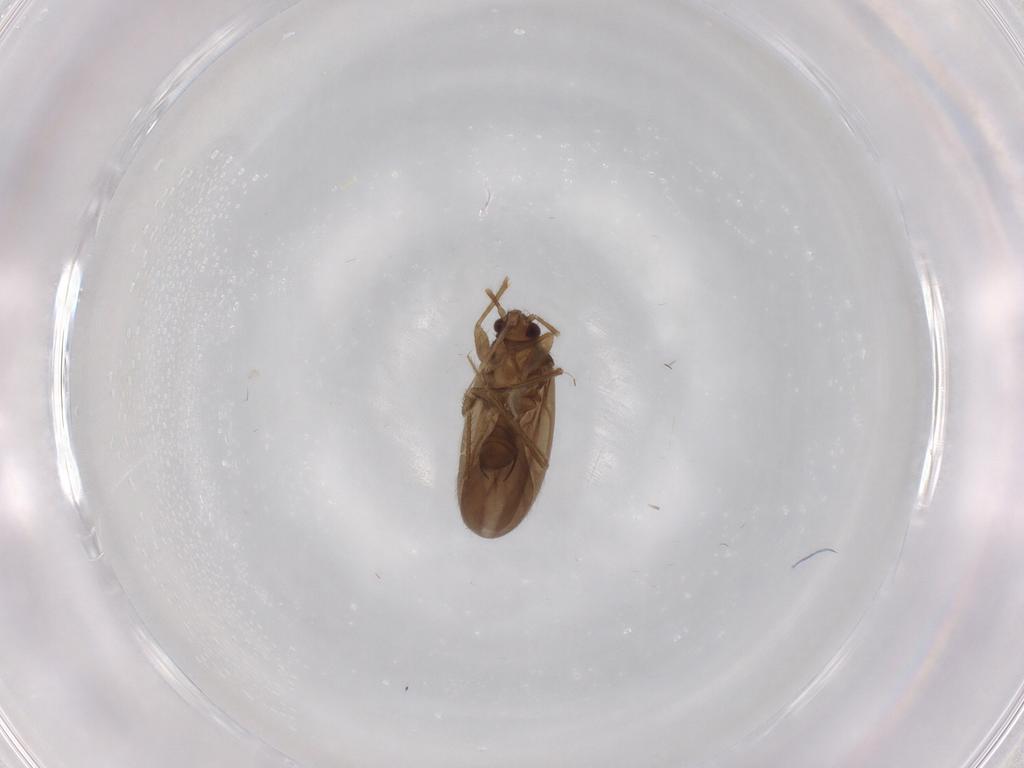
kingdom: Animalia
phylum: Arthropoda
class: Insecta
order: Hemiptera
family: Ceratocombidae
